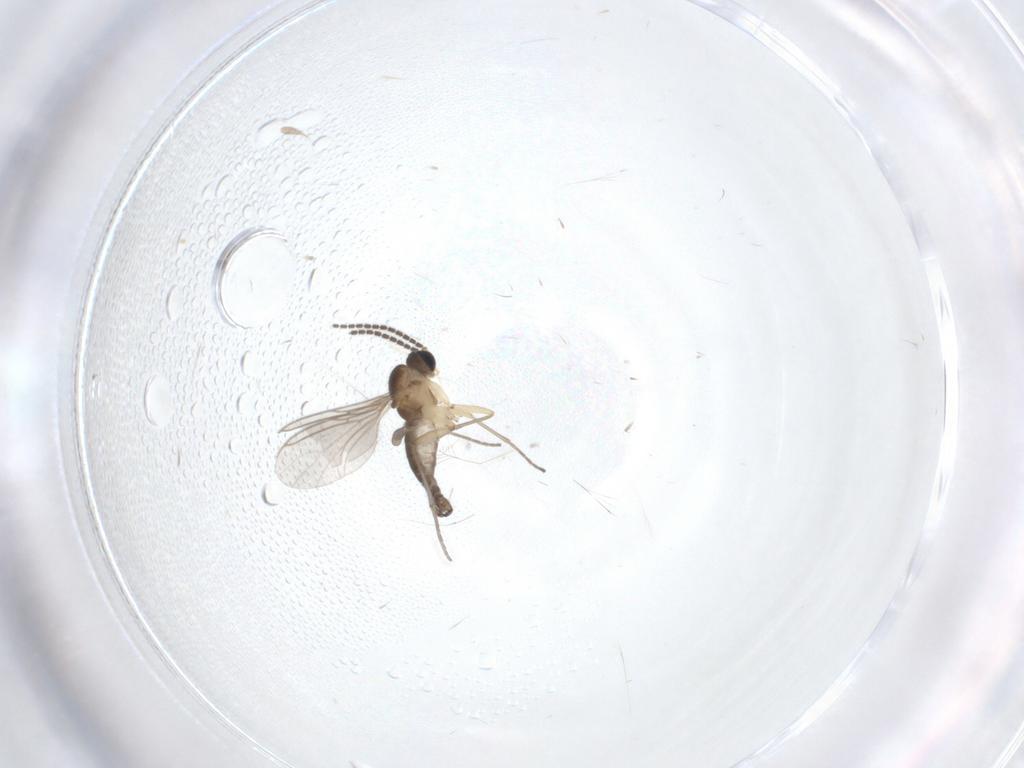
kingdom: Animalia
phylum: Arthropoda
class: Insecta
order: Diptera
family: Sciaridae
